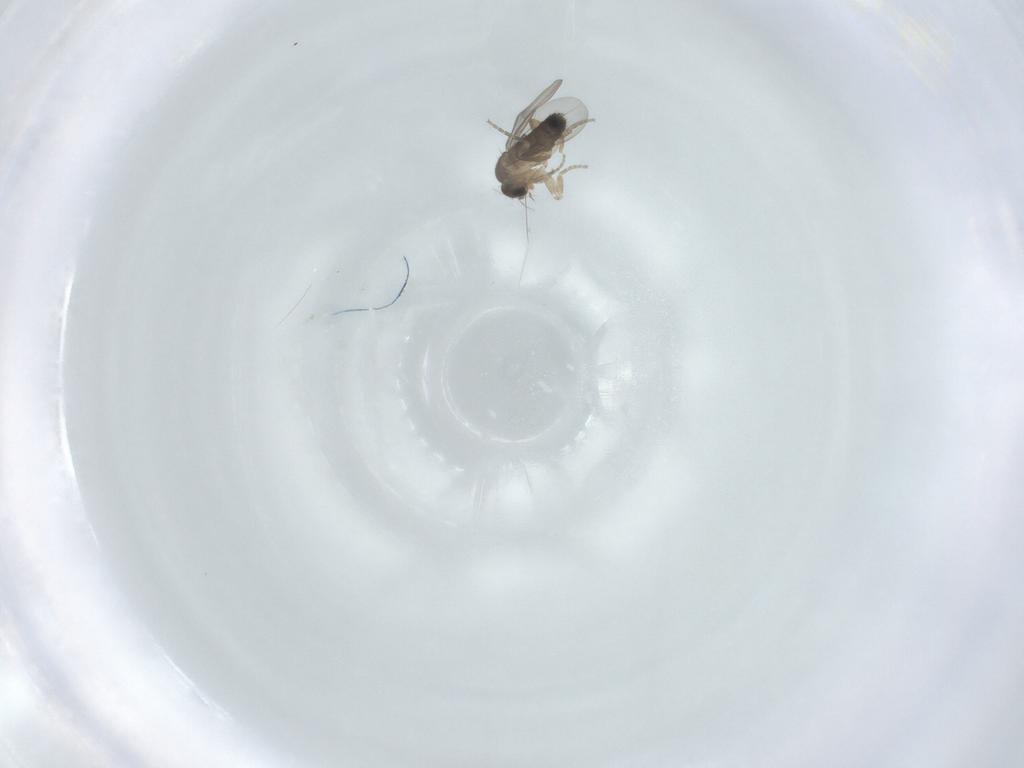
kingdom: Animalia
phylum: Arthropoda
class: Insecta
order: Diptera
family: Phoridae
